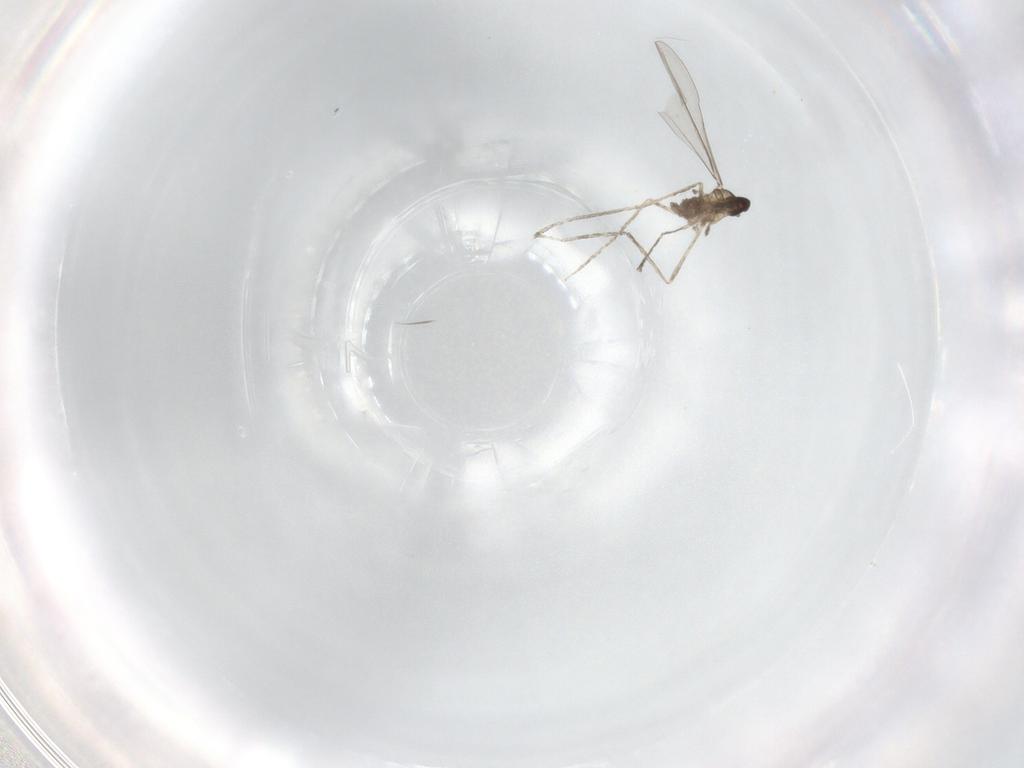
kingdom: Animalia
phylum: Arthropoda
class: Insecta
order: Diptera
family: Cecidomyiidae
